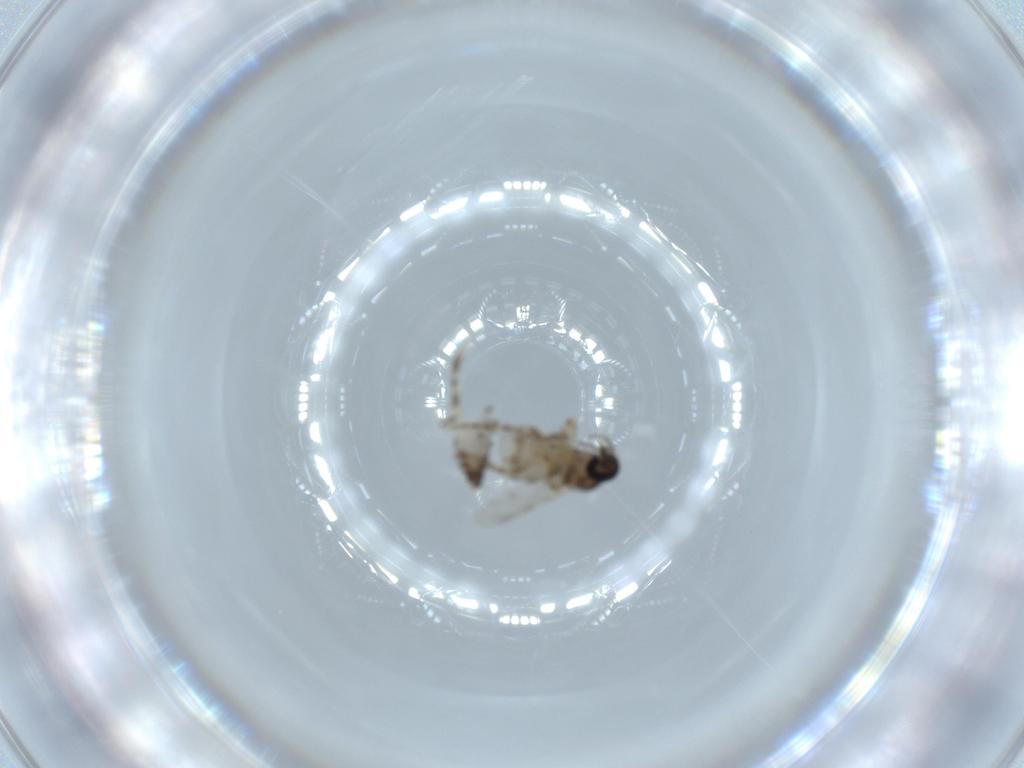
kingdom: Animalia
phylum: Arthropoda
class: Insecta
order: Diptera
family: Ceratopogonidae
